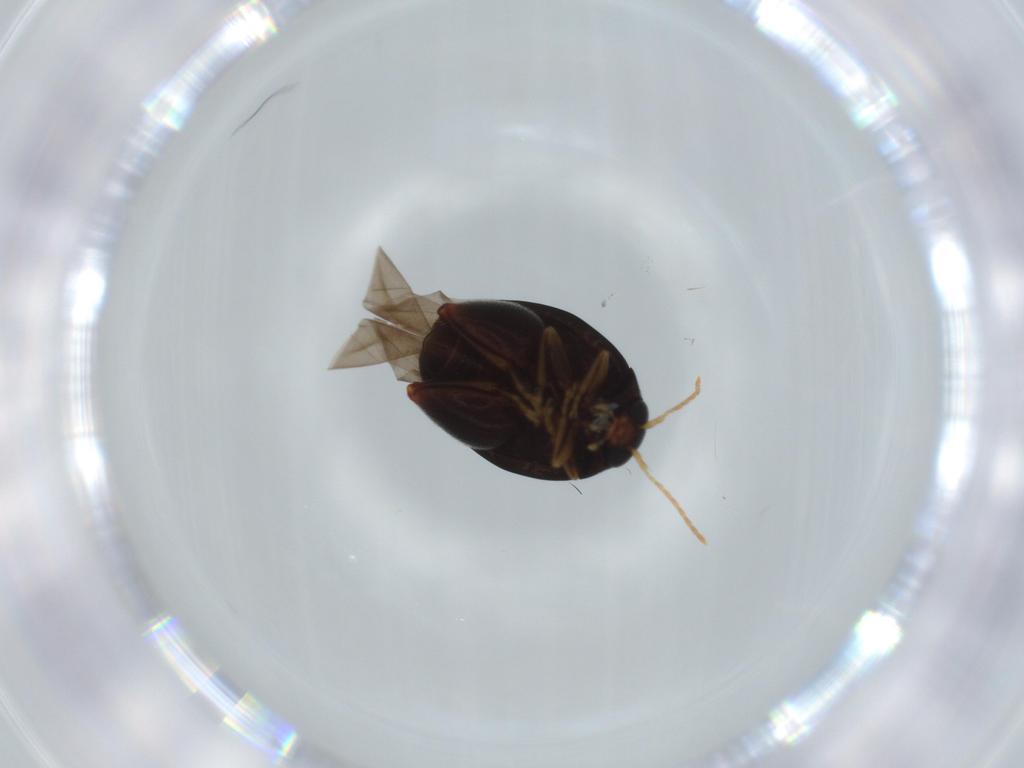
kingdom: Animalia
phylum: Arthropoda
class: Insecta
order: Coleoptera
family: Chrysomelidae
